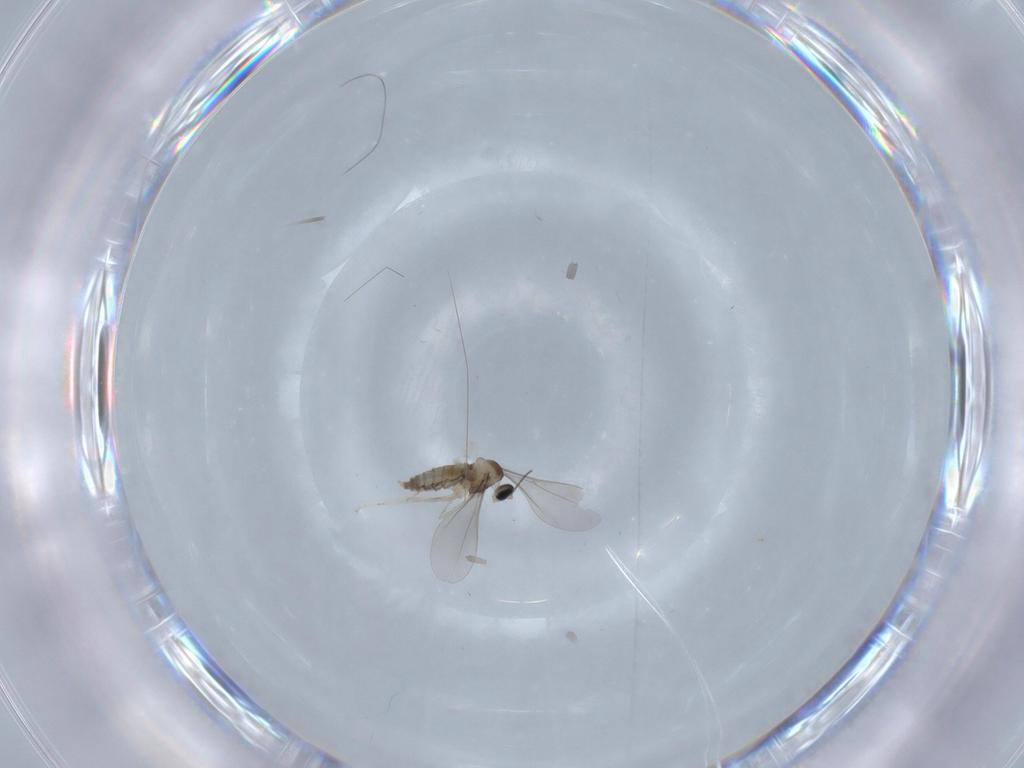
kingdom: Animalia
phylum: Arthropoda
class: Insecta
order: Diptera
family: Cecidomyiidae
